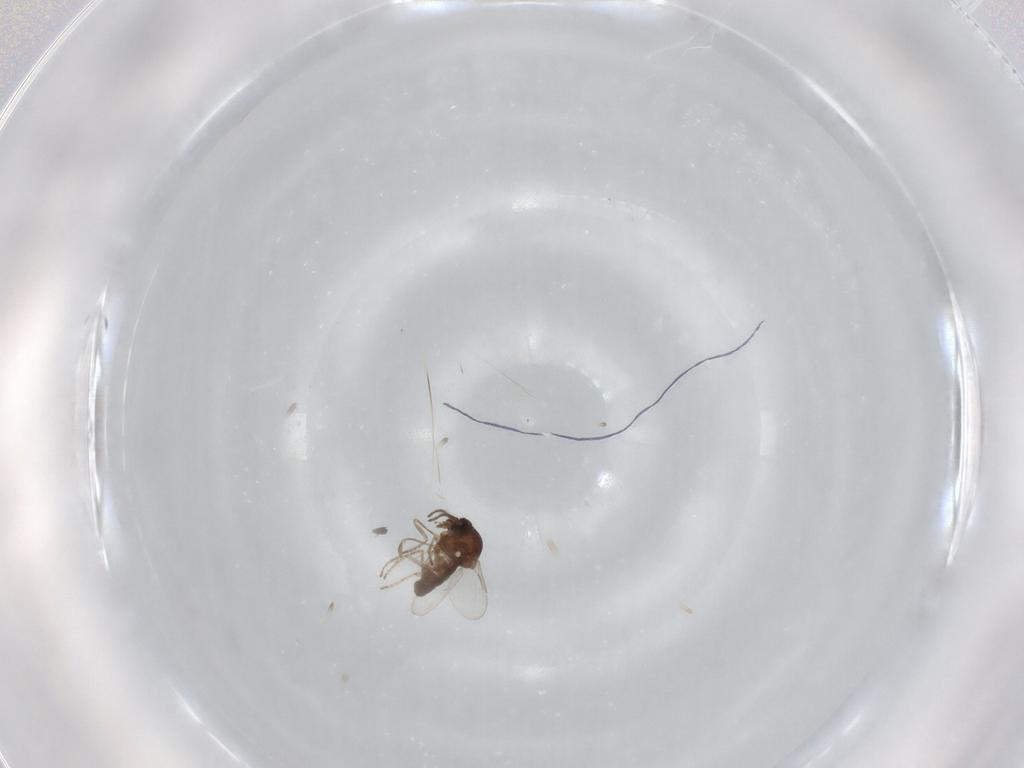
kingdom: Animalia
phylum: Arthropoda
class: Insecta
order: Diptera
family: Ceratopogonidae
